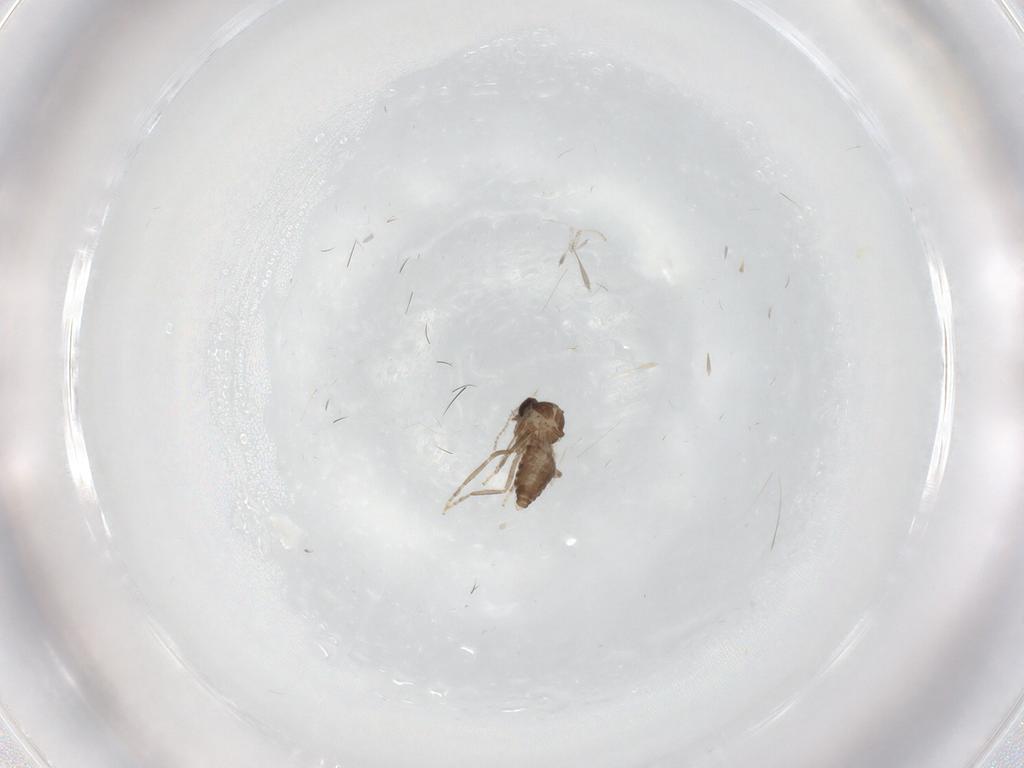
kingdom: Animalia
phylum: Arthropoda
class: Insecta
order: Diptera
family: Ceratopogonidae
